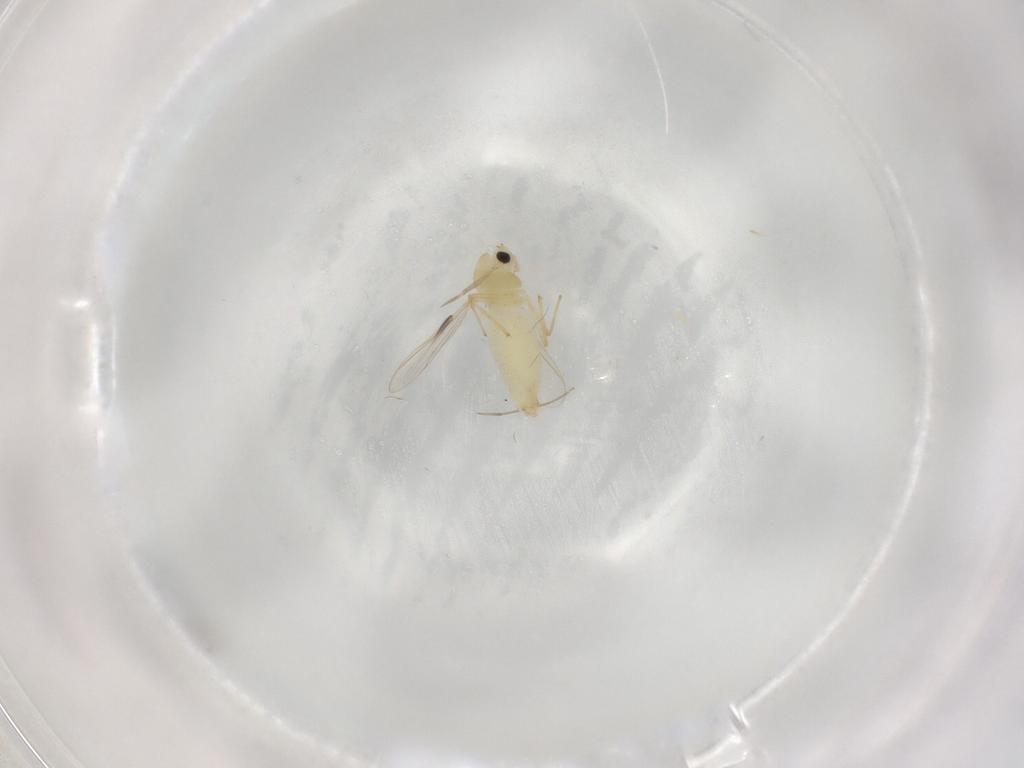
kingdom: Animalia
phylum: Arthropoda
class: Insecta
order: Diptera
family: Chironomidae
